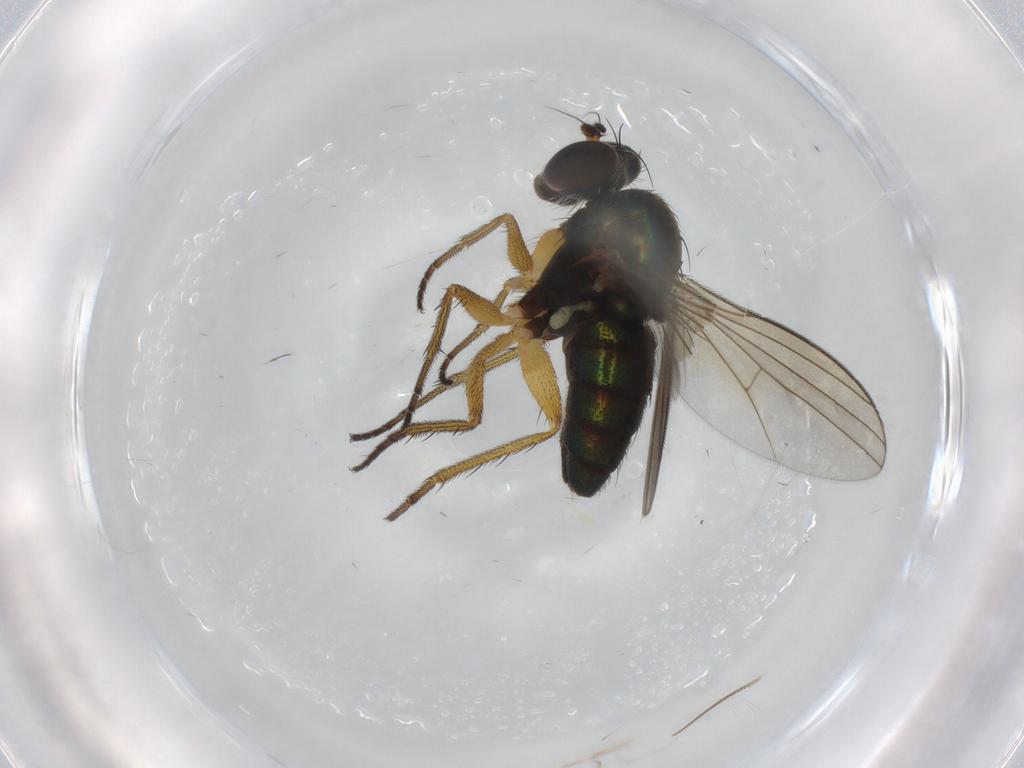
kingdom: Animalia
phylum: Arthropoda
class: Insecta
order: Diptera
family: Dolichopodidae
